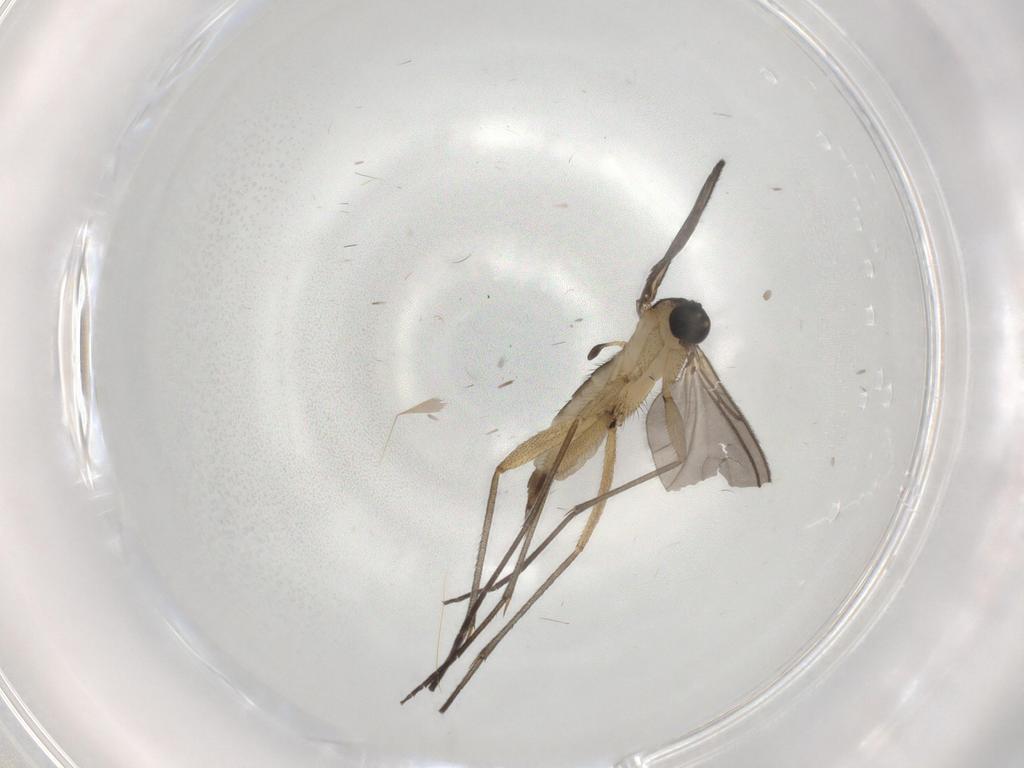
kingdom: Animalia
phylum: Arthropoda
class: Insecta
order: Diptera
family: Sciaridae
